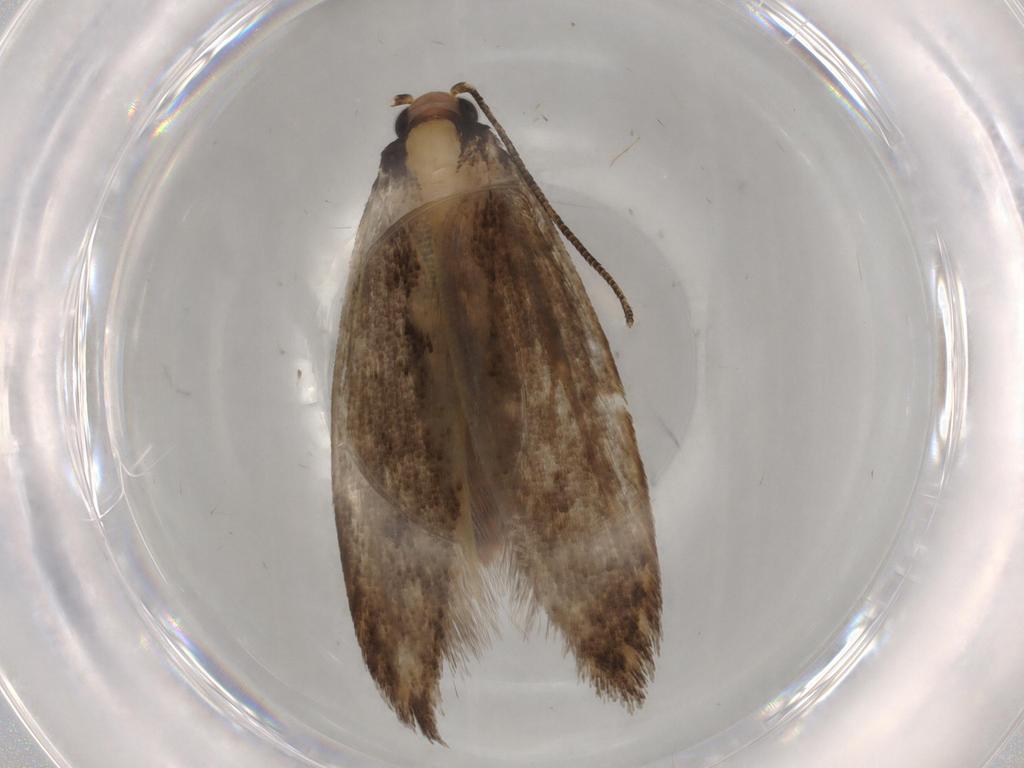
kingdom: Animalia
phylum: Arthropoda
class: Insecta
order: Lepidoptera
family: Tineidae
